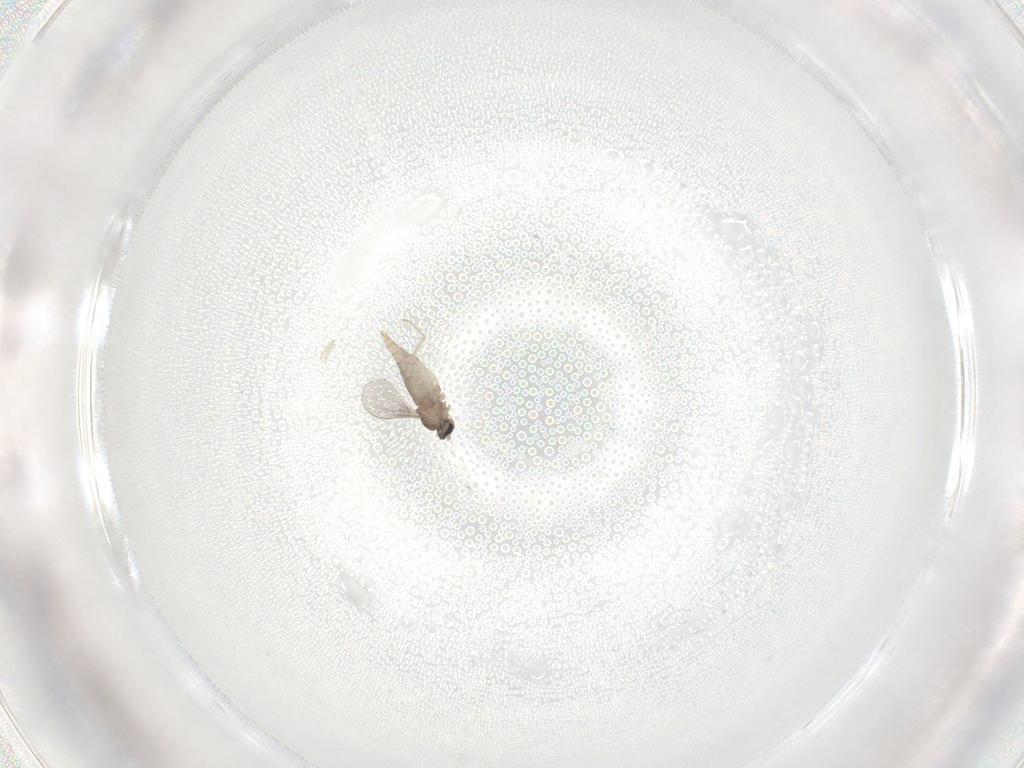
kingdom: Animalia
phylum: Arthropoda
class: Insecta
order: Diptera
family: Cecidomyiidae
